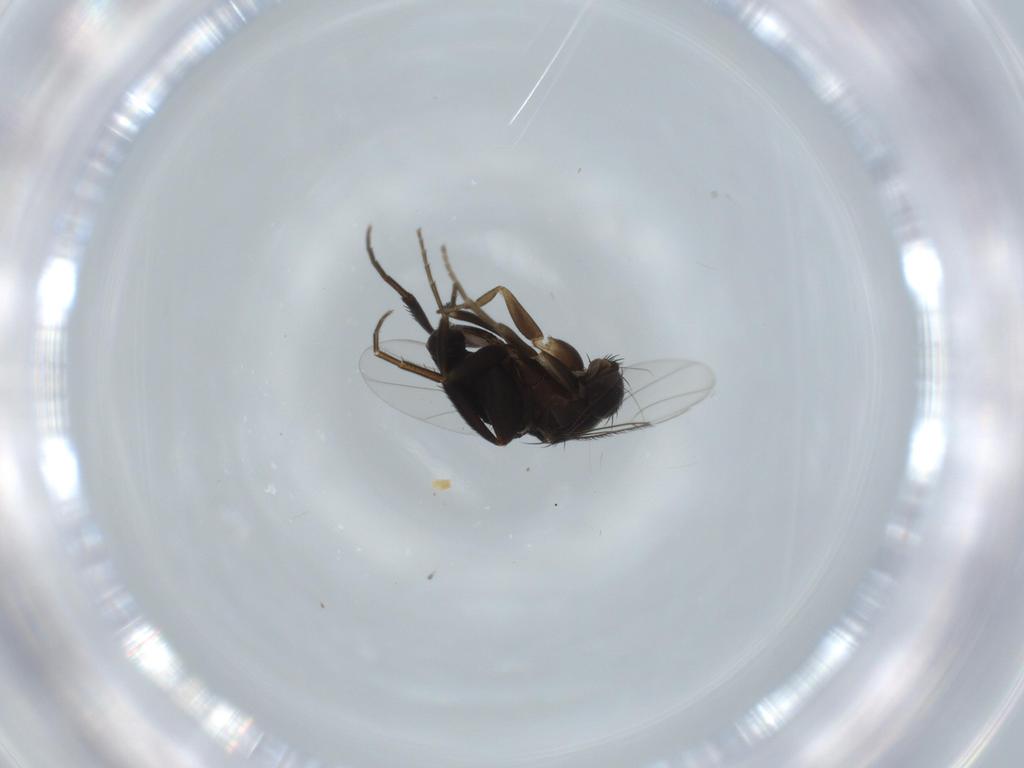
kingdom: Animalia
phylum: Arthropoda
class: Insecta
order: Diptera
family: Phoridae
